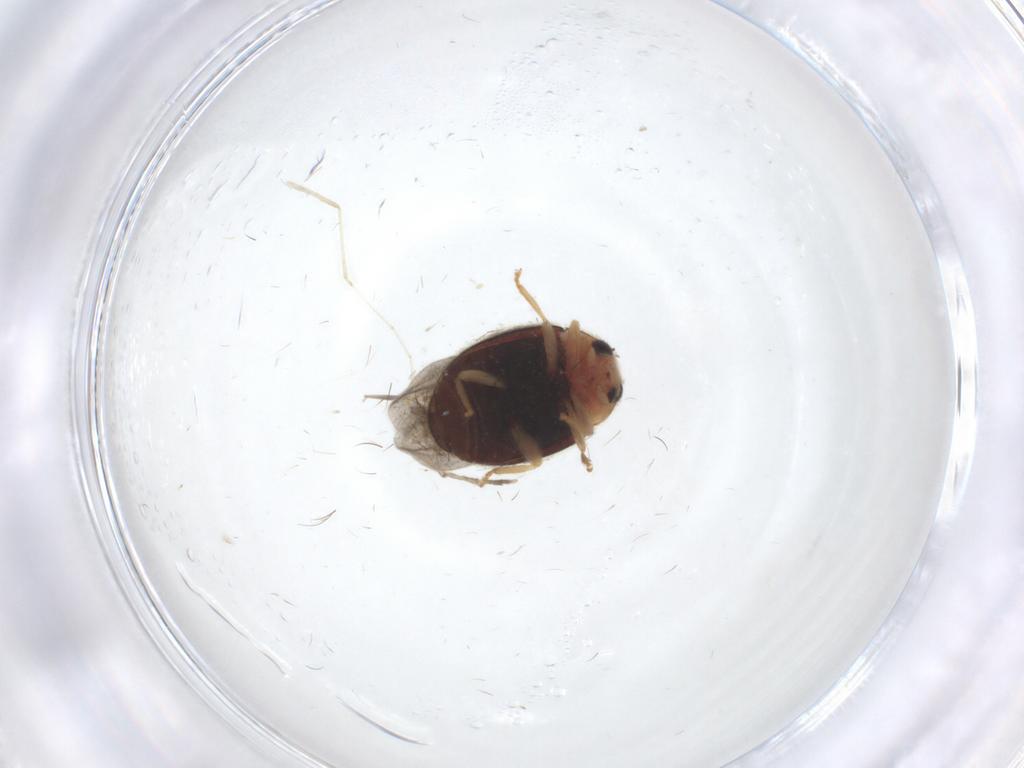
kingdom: Animalia
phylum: Arthropoda
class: Insecta
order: Coleoptera
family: Brentidae
